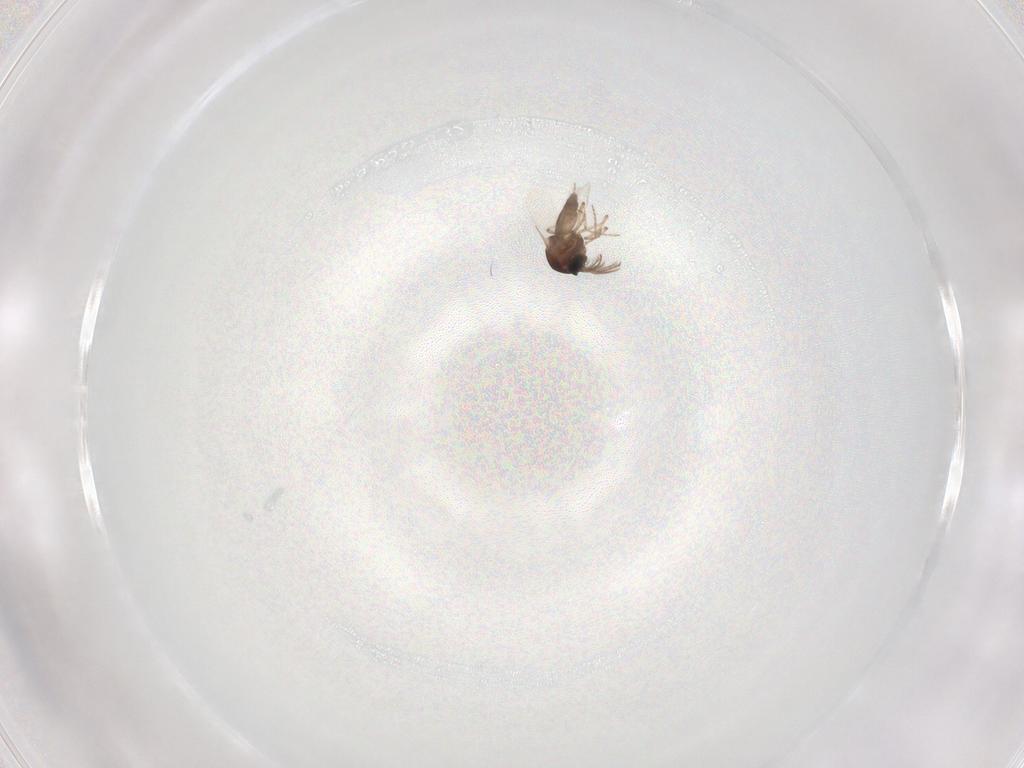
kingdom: Animalia
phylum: Arthropoda
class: Insecta
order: Diptera
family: Ceratopogonidae
